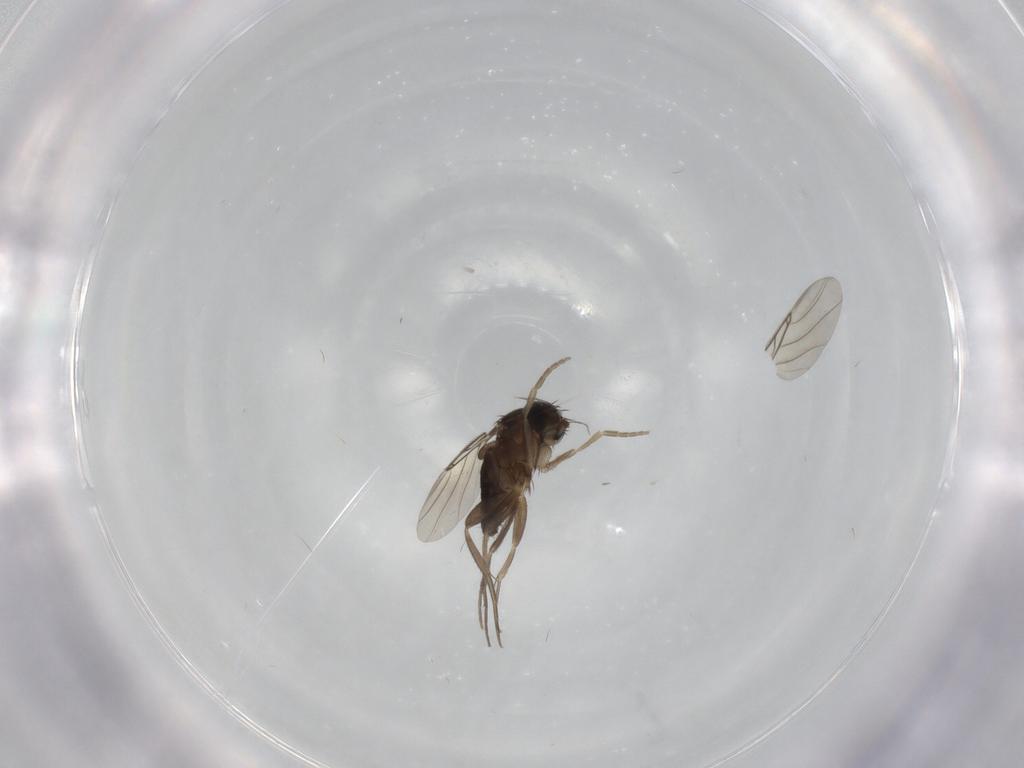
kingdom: Animalia
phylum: Arthropoda
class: Insecta
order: Diptera
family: Phoridae
